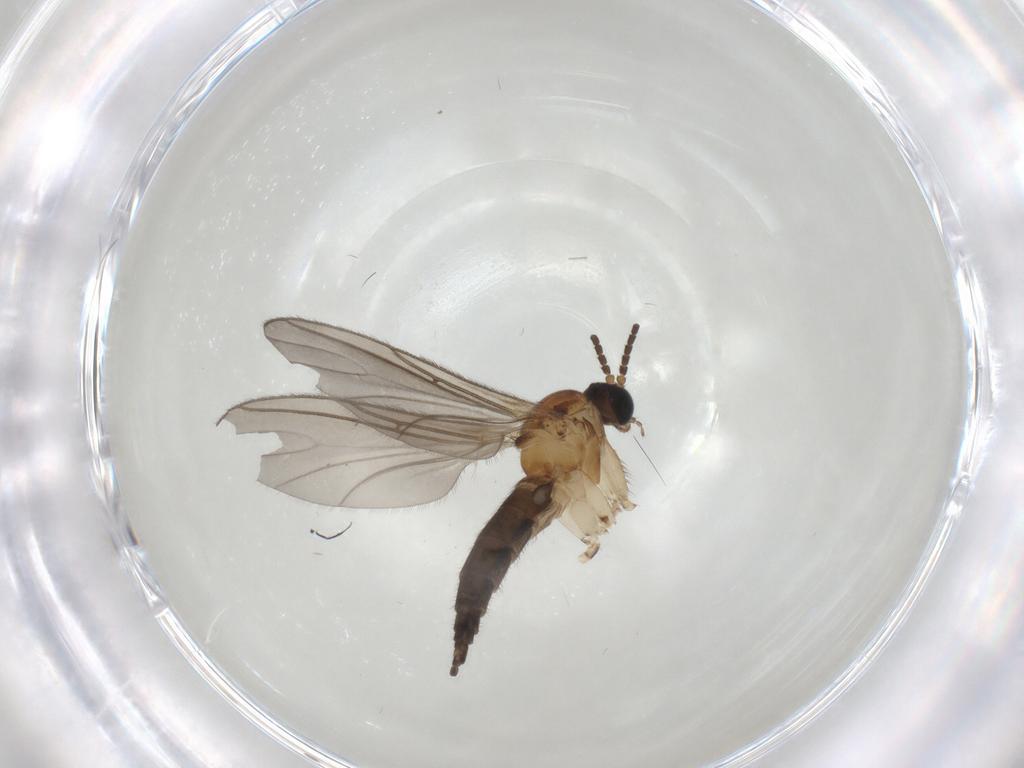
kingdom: Animalia
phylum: Arthropoda
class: Insecta
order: Diptera
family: Sciaridae
